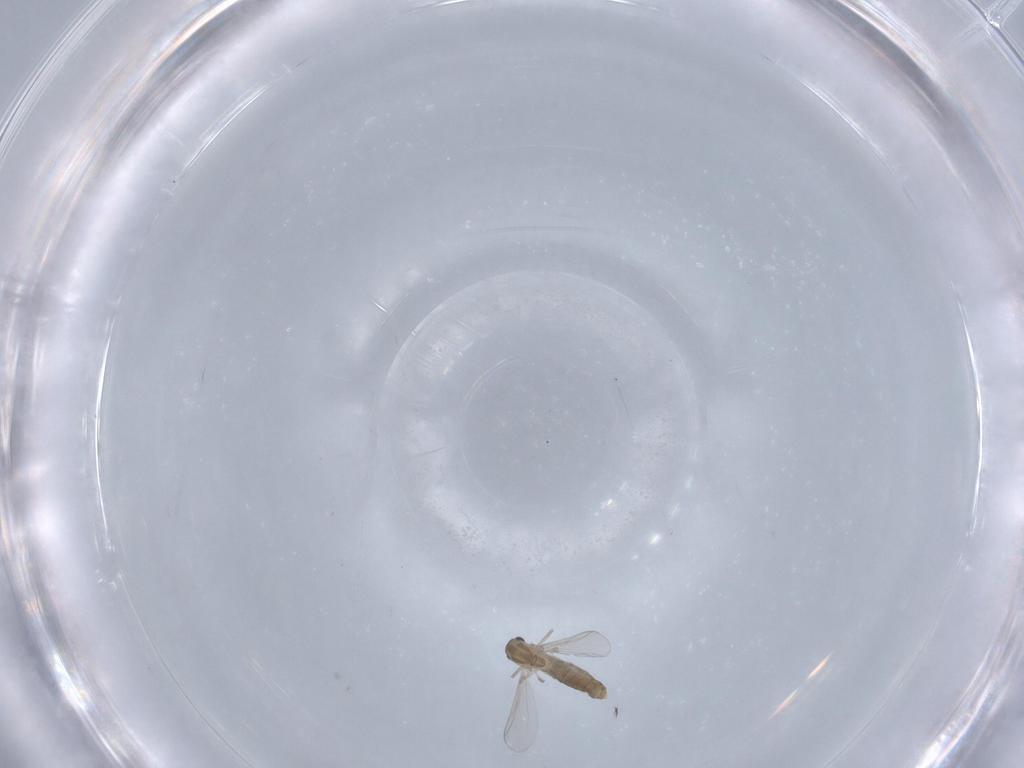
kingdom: Animalia
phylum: Arthropoda
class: Insecta
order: Diptera
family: Chironomidae
